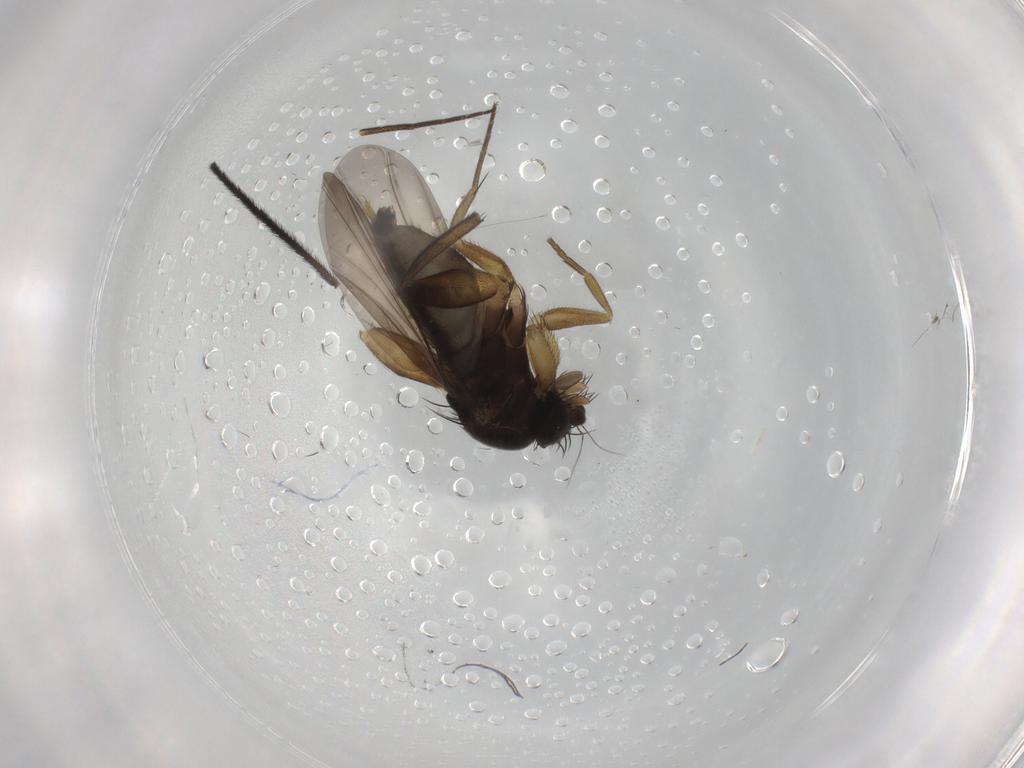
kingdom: Animalia
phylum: Arthropoda
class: Insecta
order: Diptera
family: Phoridae
